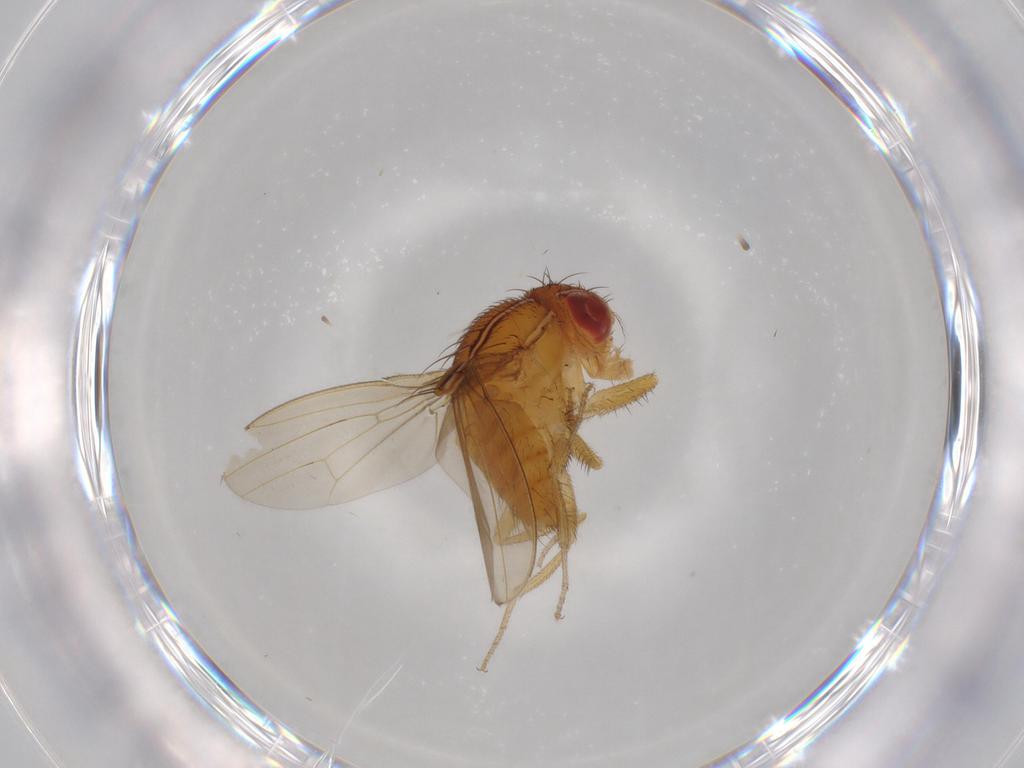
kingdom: Animalia
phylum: Arthropoda
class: Insecta
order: Diptera
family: Drosophilidae
